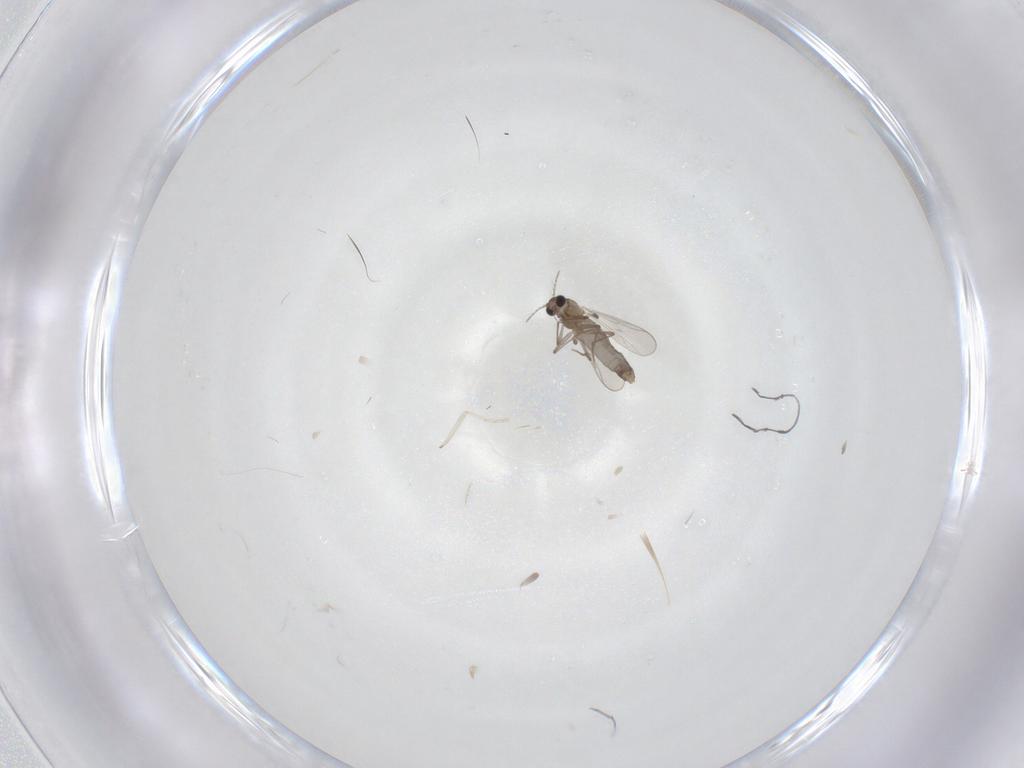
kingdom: Animalia
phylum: Arthropoda
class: Insecta
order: Diptera
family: Cecidomyiidae
